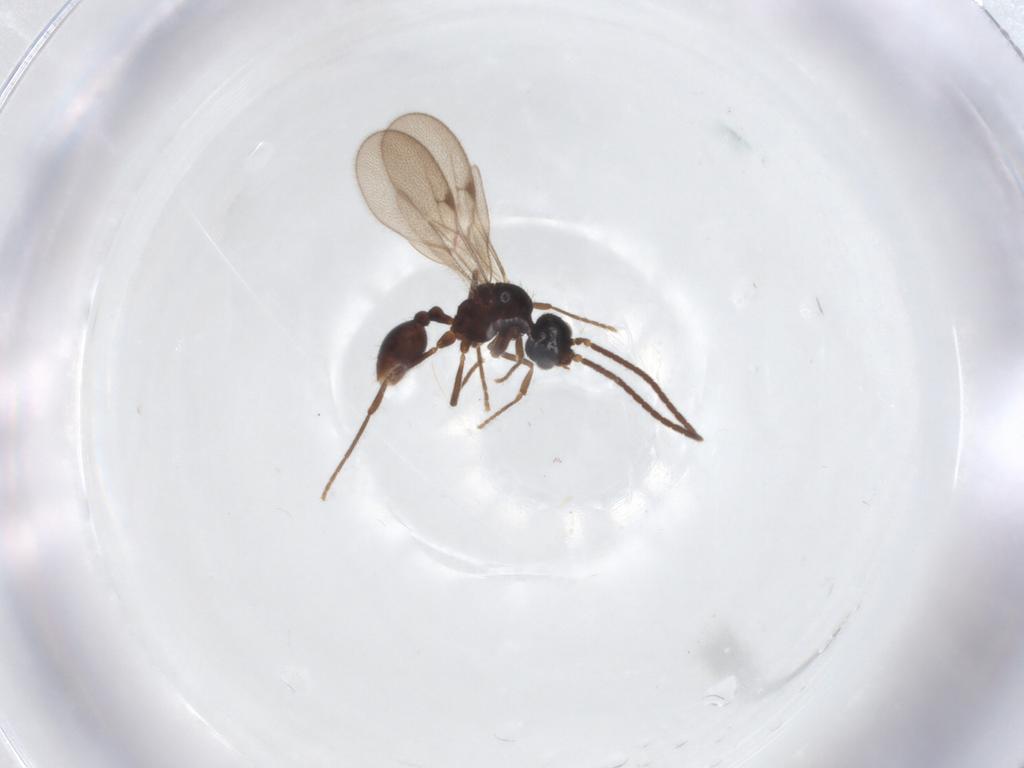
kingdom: Animalia
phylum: Arthropoda
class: Insecta
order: Hymenoptera
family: Formicidae
